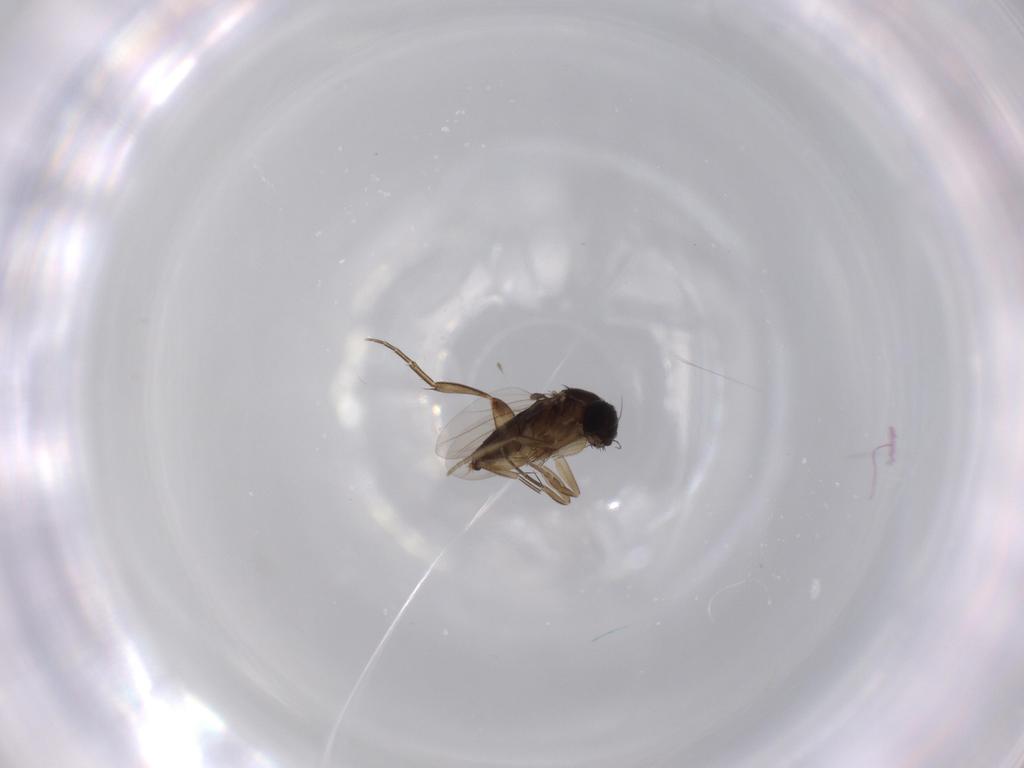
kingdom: Animalia
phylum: Arthropoda
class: Insecta
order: Diptera
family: Phoridae
